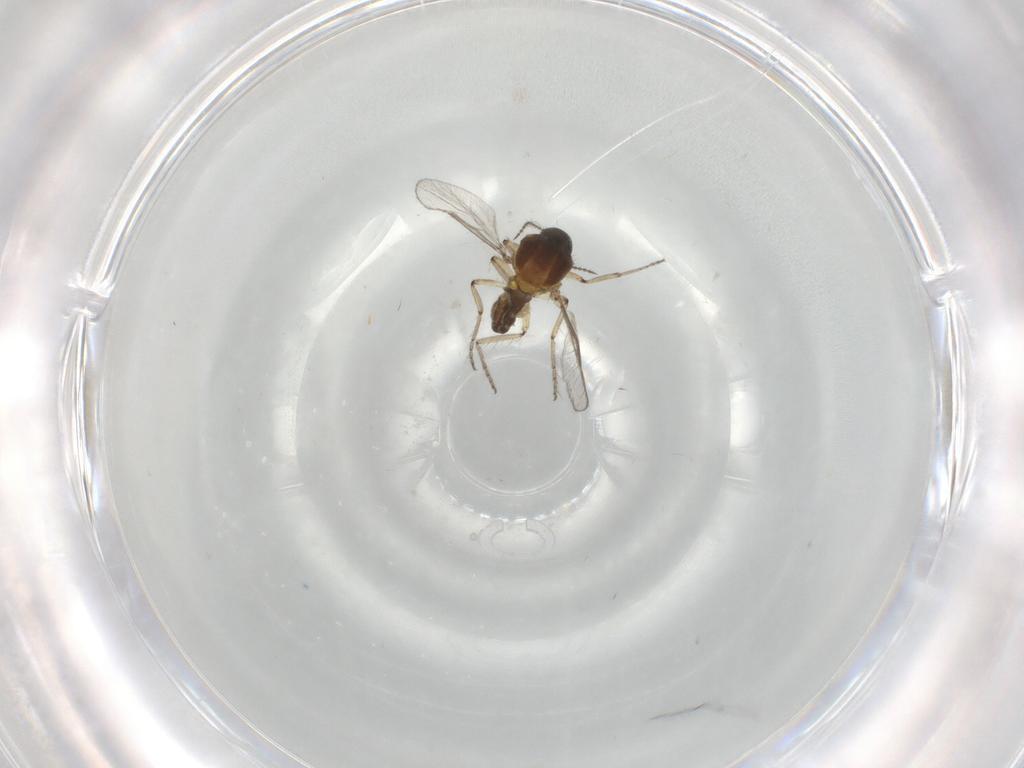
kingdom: Animalia
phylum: Arthropoda
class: Insecta
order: Diptera
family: Ceratopogonidae
